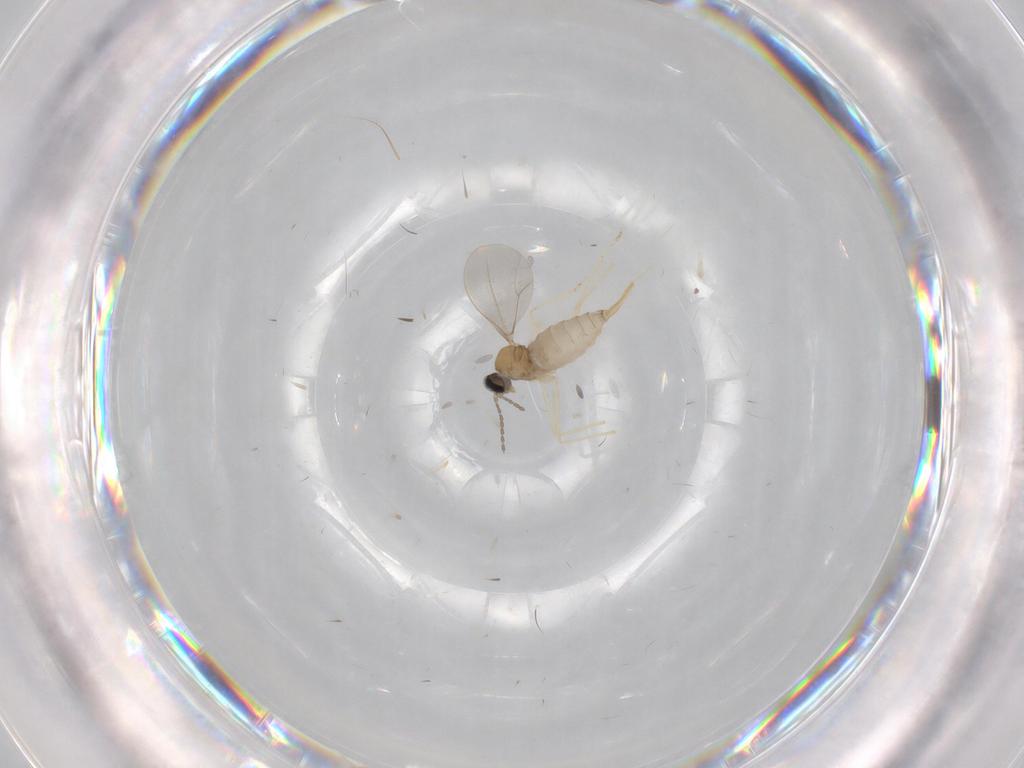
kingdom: Animalia
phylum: Arthropoda
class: Insecta
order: Diptera
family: Cecidomyiidae
